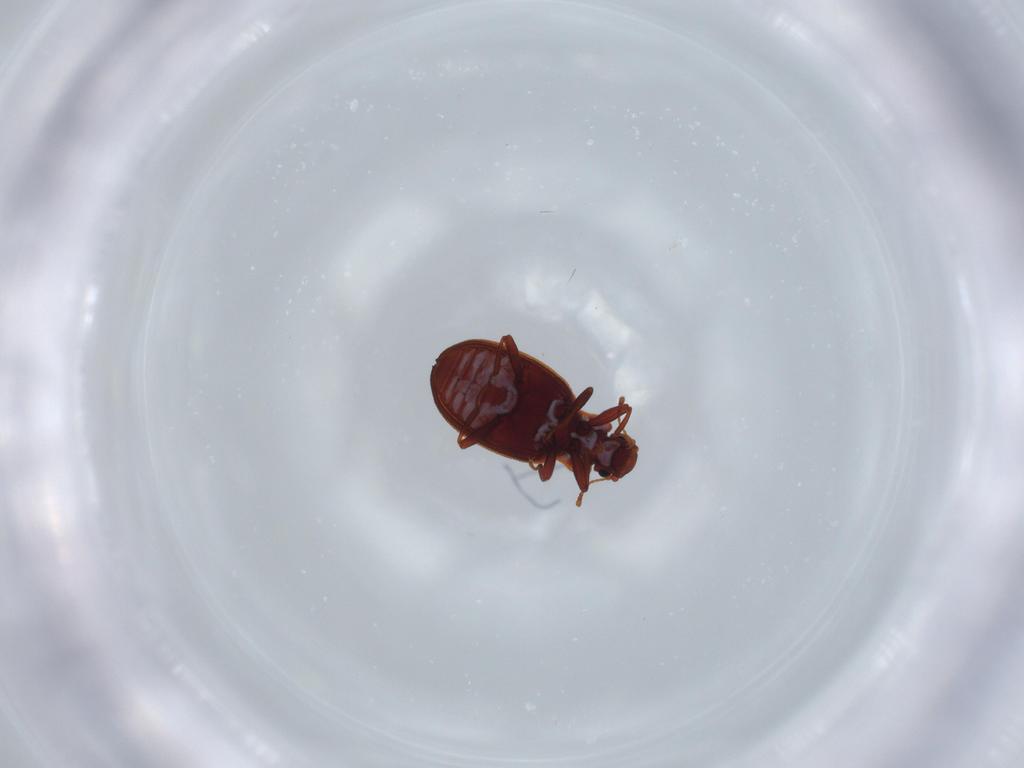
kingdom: Animalia
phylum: Arthropoda
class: Insecta
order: Coleoptera
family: Latridiidae
